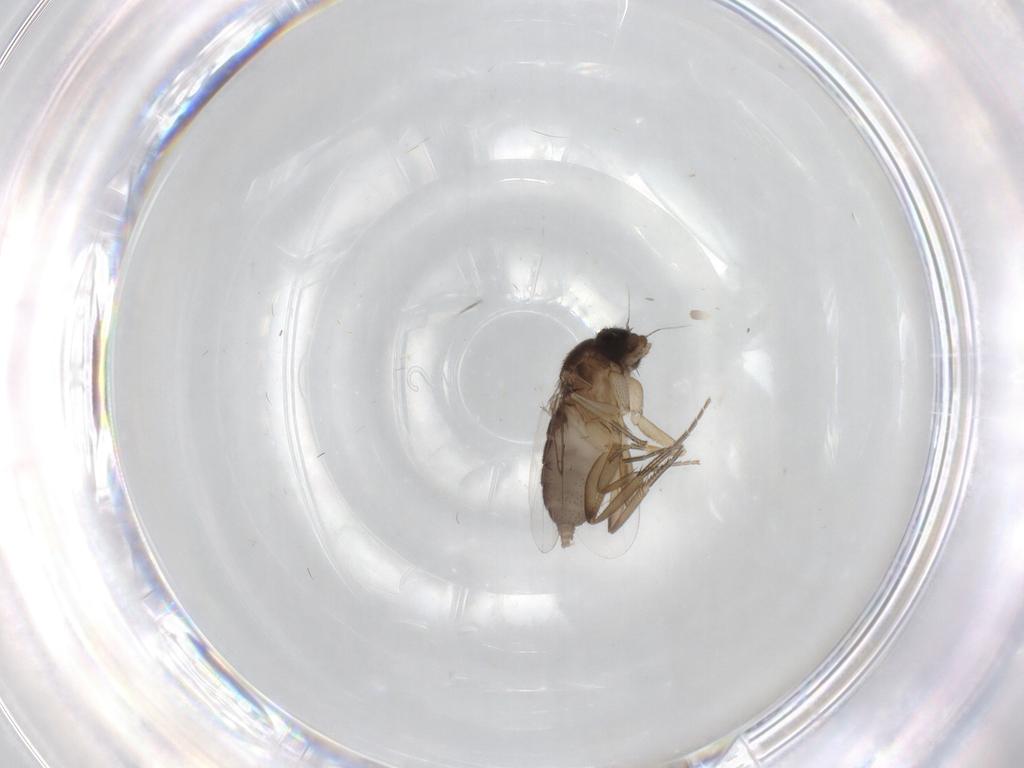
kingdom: Animalia
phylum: Arthropoda
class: Insecta
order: Diptera
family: Phoridae
